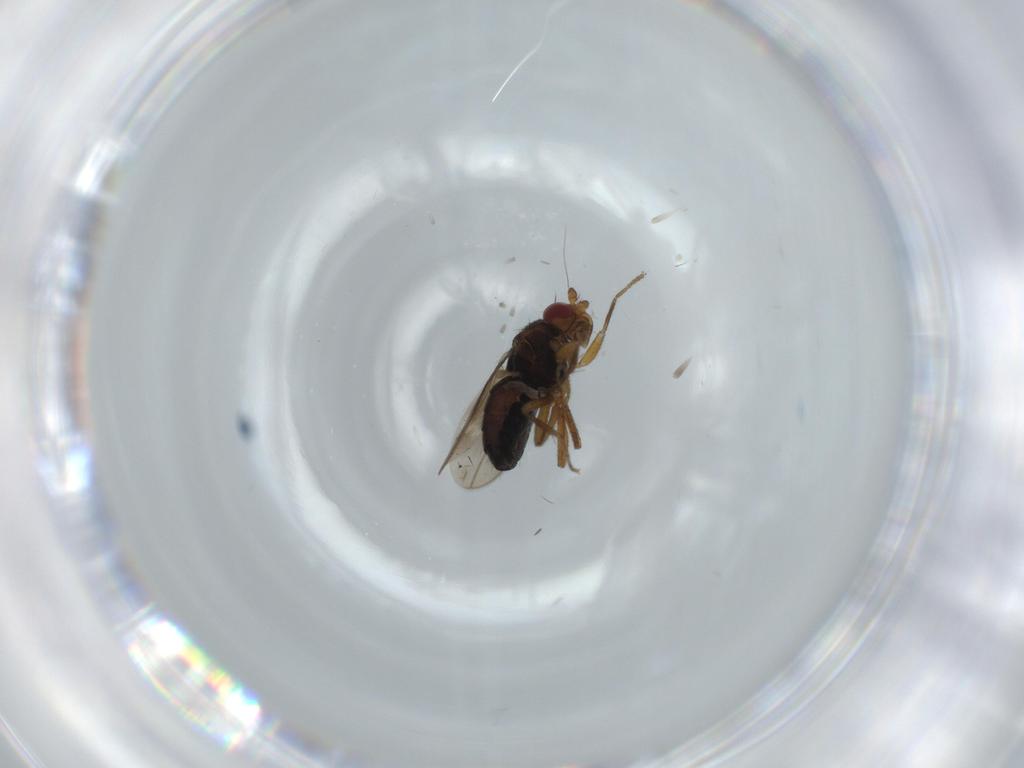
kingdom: Animalia
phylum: Arthropoda
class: Insecta
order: Diptera
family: Sphaeroceridae
